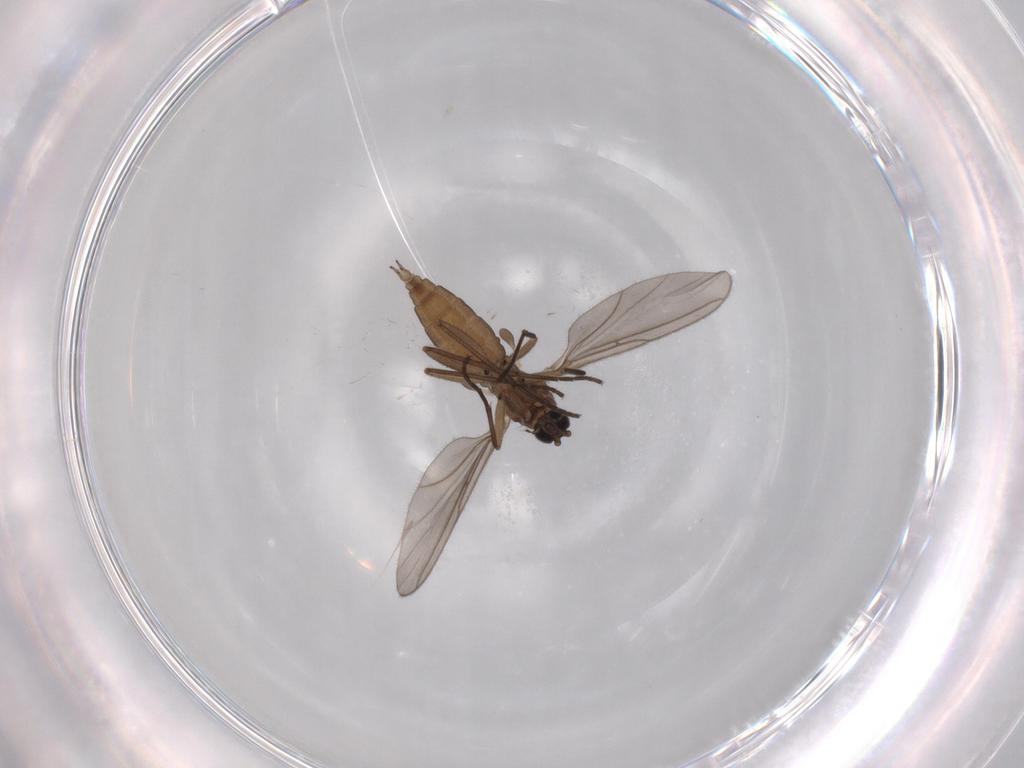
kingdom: Animalia
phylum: Arthropoda
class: Insecta
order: Diptera
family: Sciaridae
